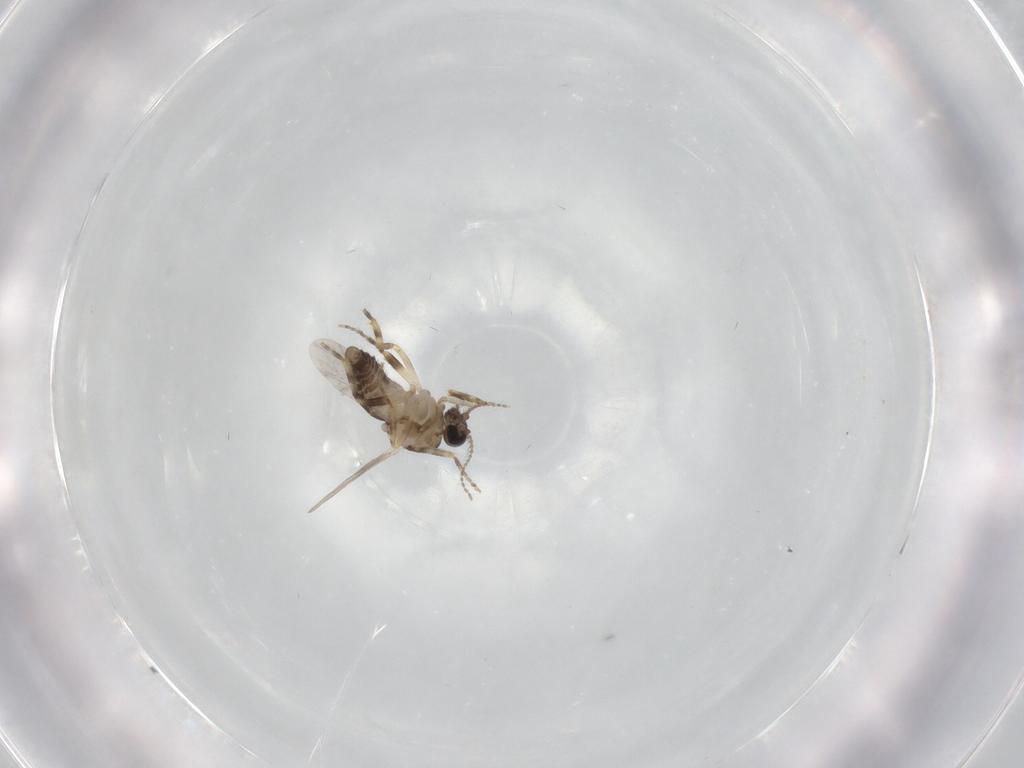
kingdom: Animalia
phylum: Arthropoda
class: Insecta
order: Diptera
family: Ceratopogonidae
